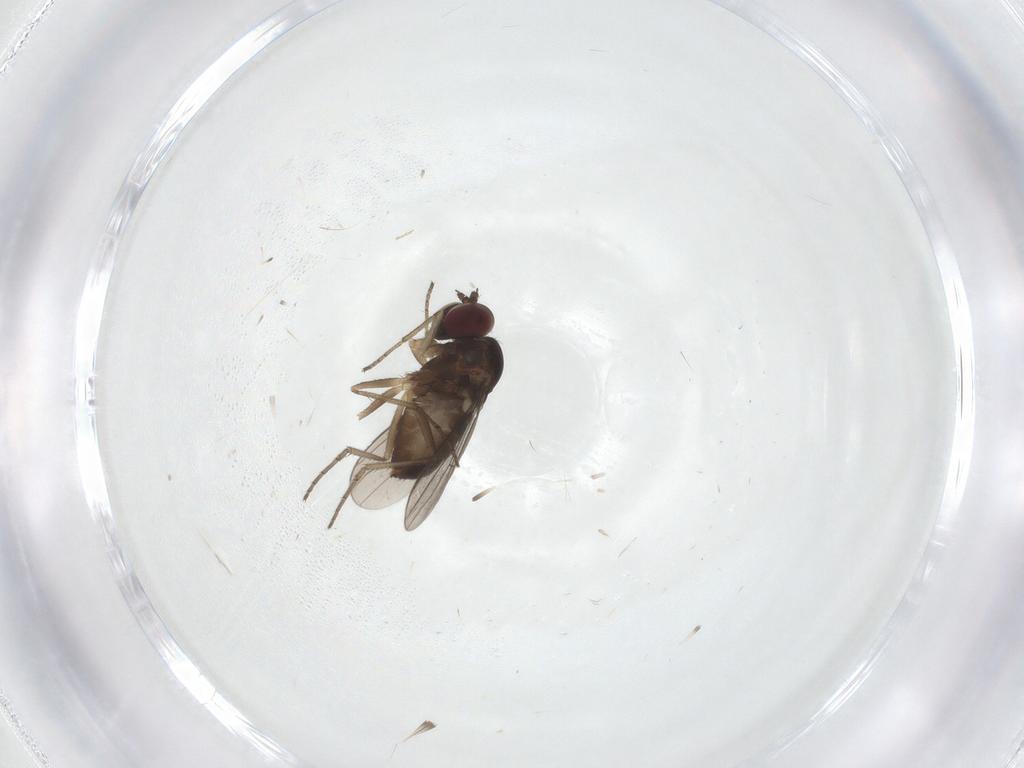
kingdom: Animalia
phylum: Arthropoda
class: Insecta
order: Diptera
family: Dolichopodidae
